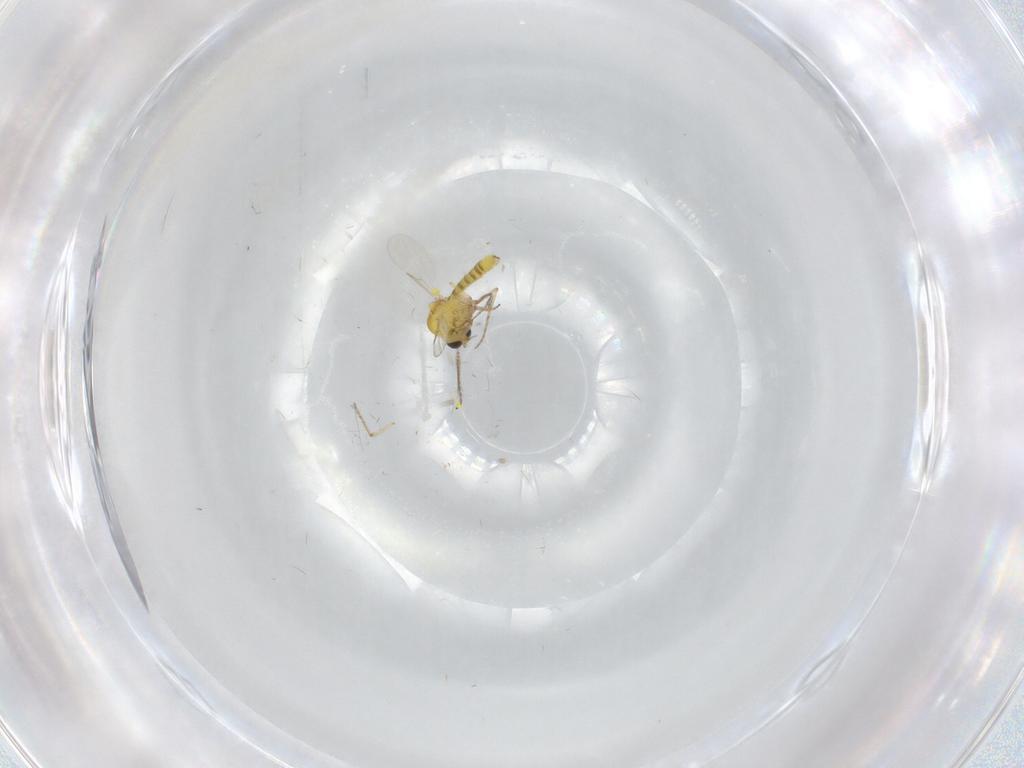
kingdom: Animalia
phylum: Arthropoda
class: Insecta
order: Diptera
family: Ceratopogonidae
